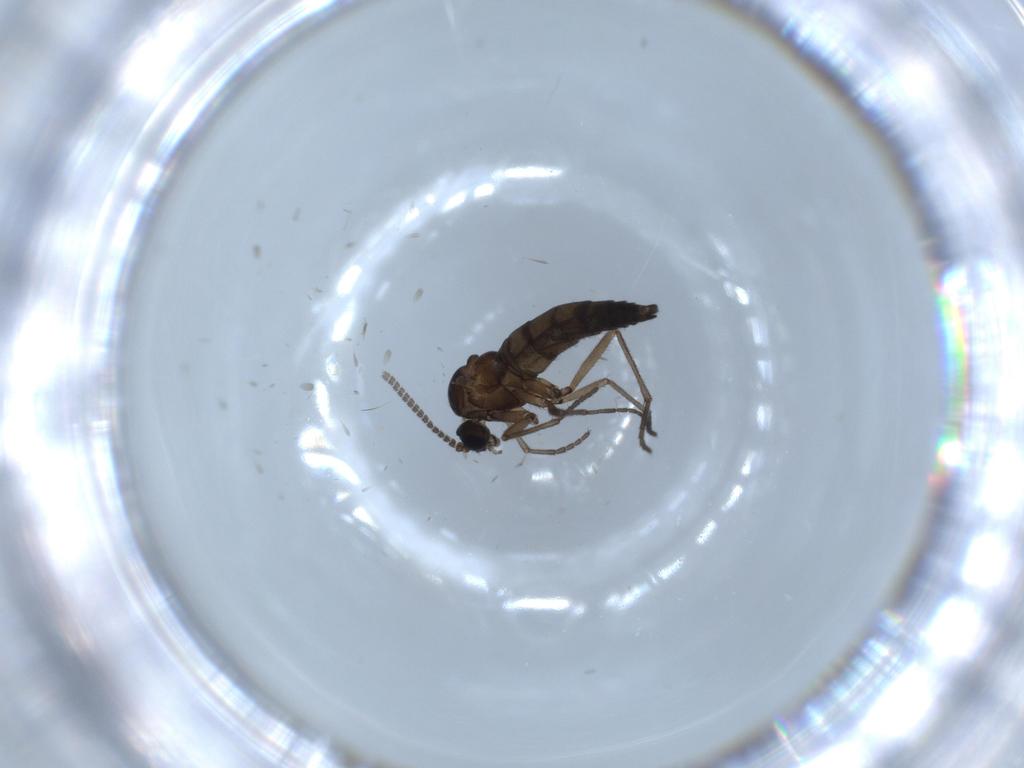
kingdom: Animalia
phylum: Arthropoda
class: Insecta
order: Diptera
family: Sciaridae
